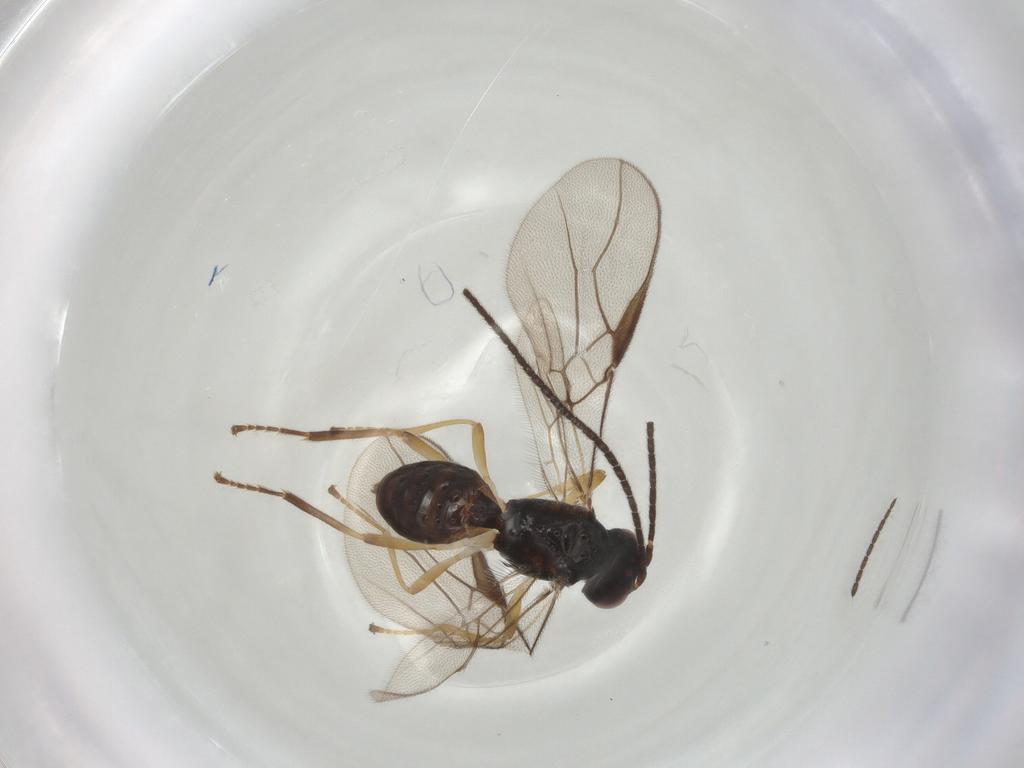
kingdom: Animalia
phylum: Arthropoda
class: Insecta
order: Hymenoptera
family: Braconidae
